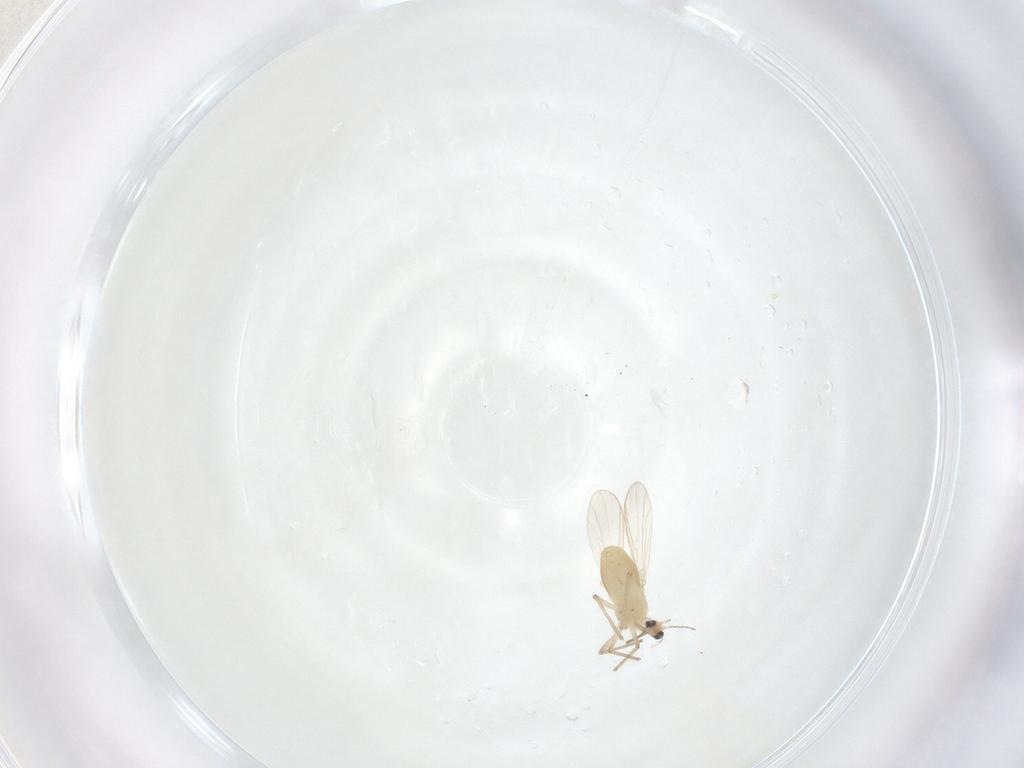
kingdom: Animalia
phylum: Arthropoda
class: Insecta
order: Diptera
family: Chironomidae
